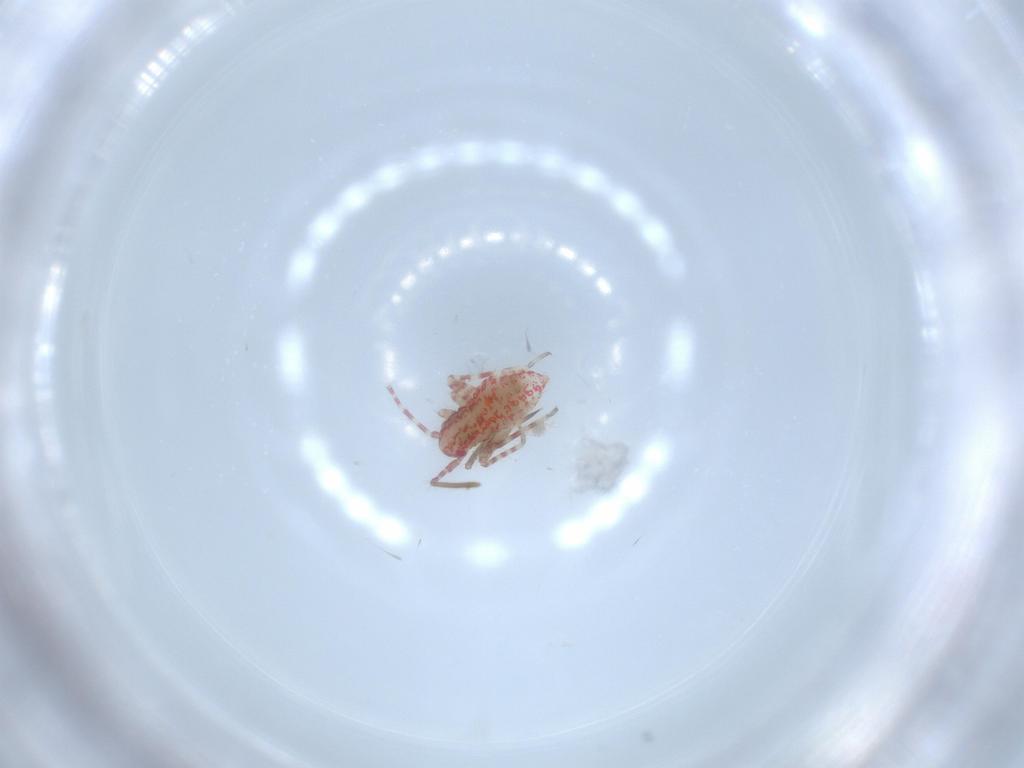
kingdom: Animalia
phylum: Arthropoda
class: Insecta
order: Hemiptera
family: Miridae
